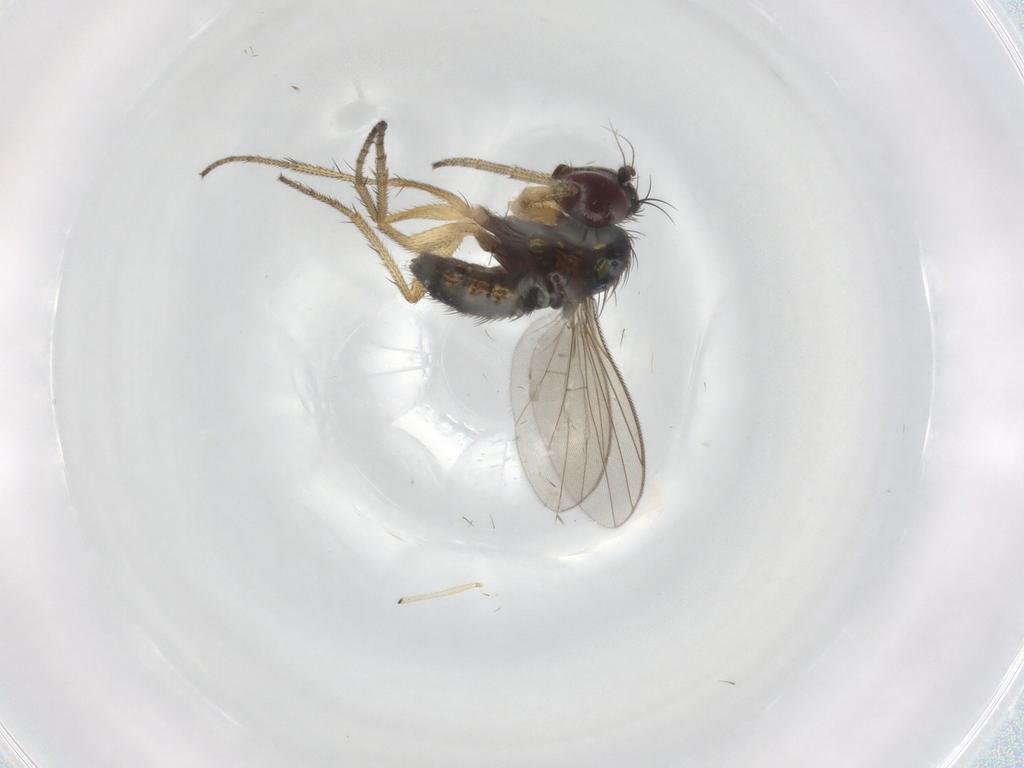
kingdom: Animalia
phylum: Arthropoda
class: Insecta
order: Diptera
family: Dolichopodidae
